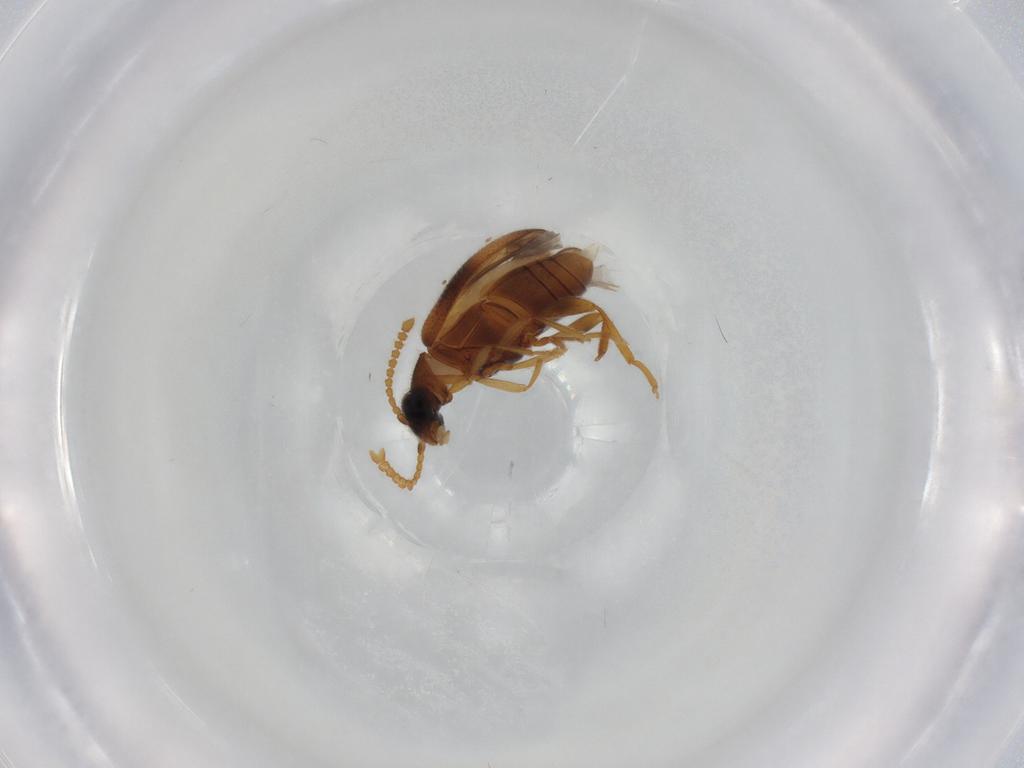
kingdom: Animalia
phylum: Arthropoda
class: Insecta
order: Coleoptera
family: Aderidae
